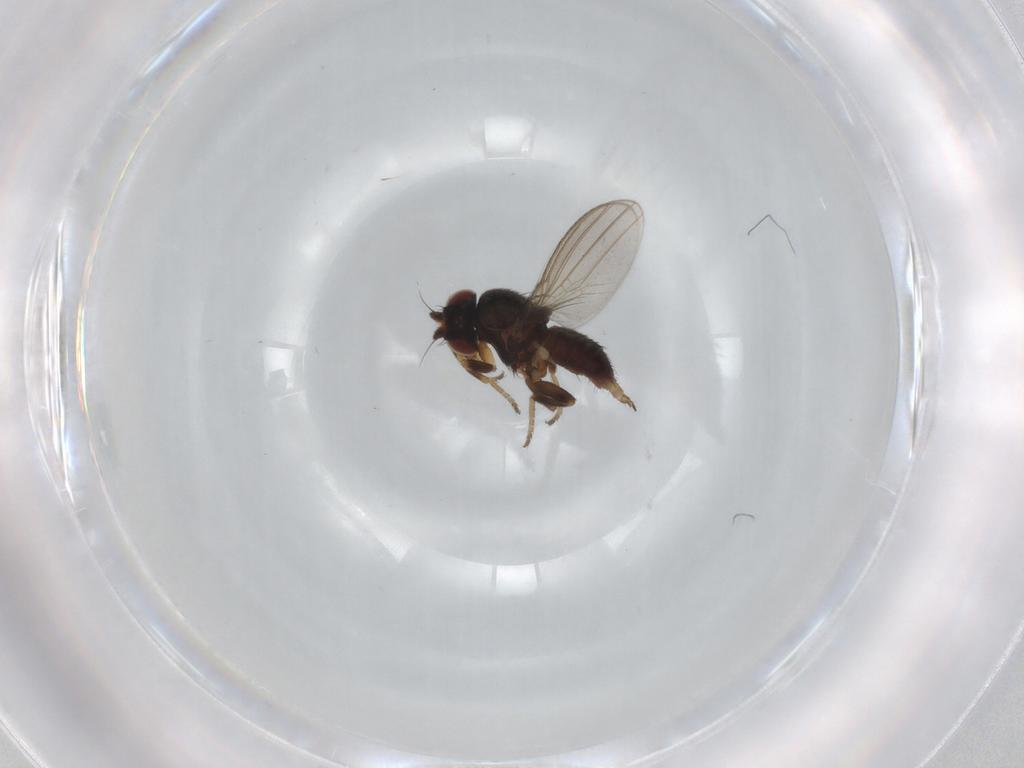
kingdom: Animalia
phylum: Arthropoda
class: Insecta
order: Diptera
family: Milichiidae
